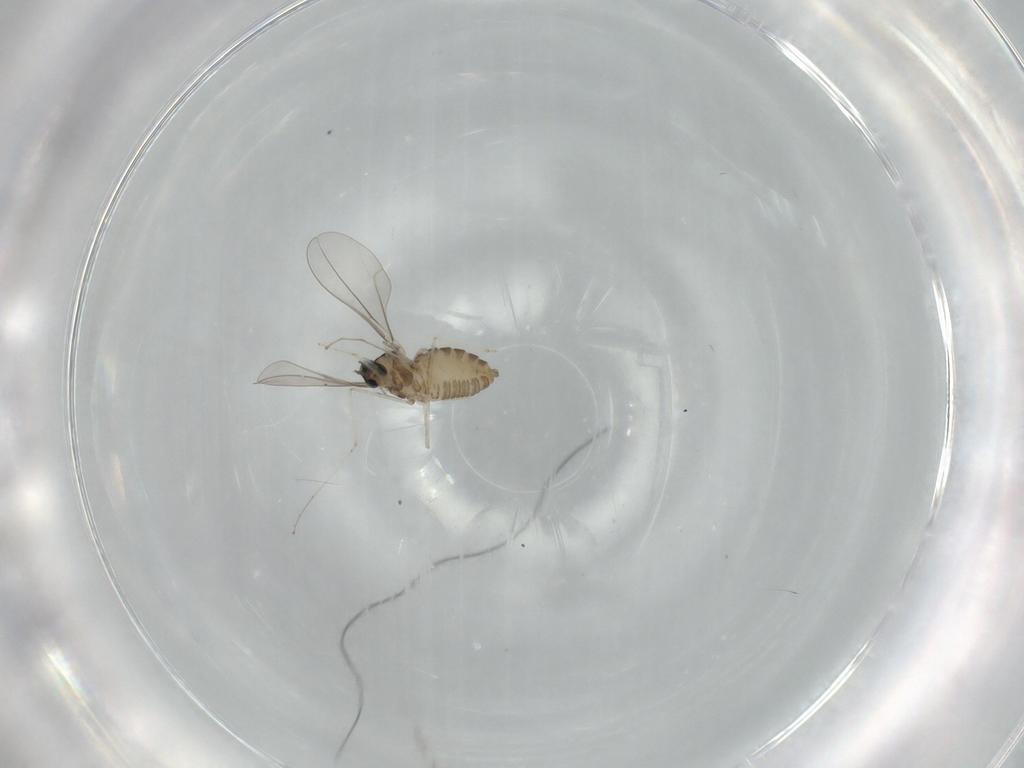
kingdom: Animalia
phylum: Arthropoda
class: Insecta
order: Diptera
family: Cecidomyiidae
